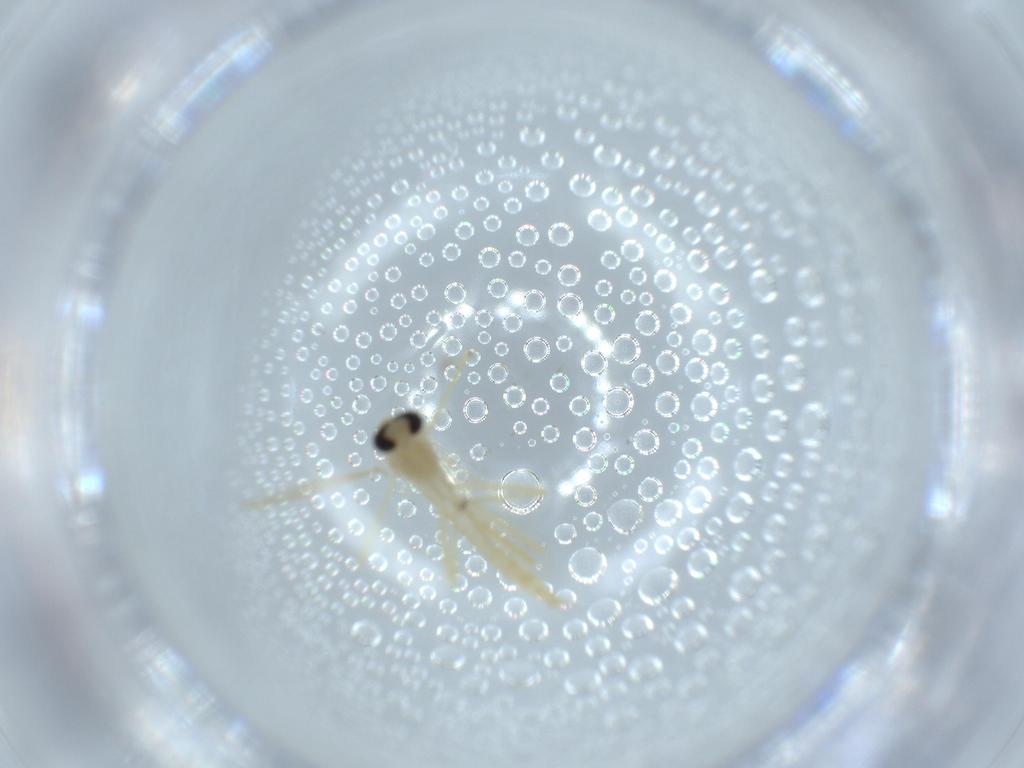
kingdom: Animalia
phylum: Arthropoda
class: Insecta
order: Diptera
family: Chironomidae
